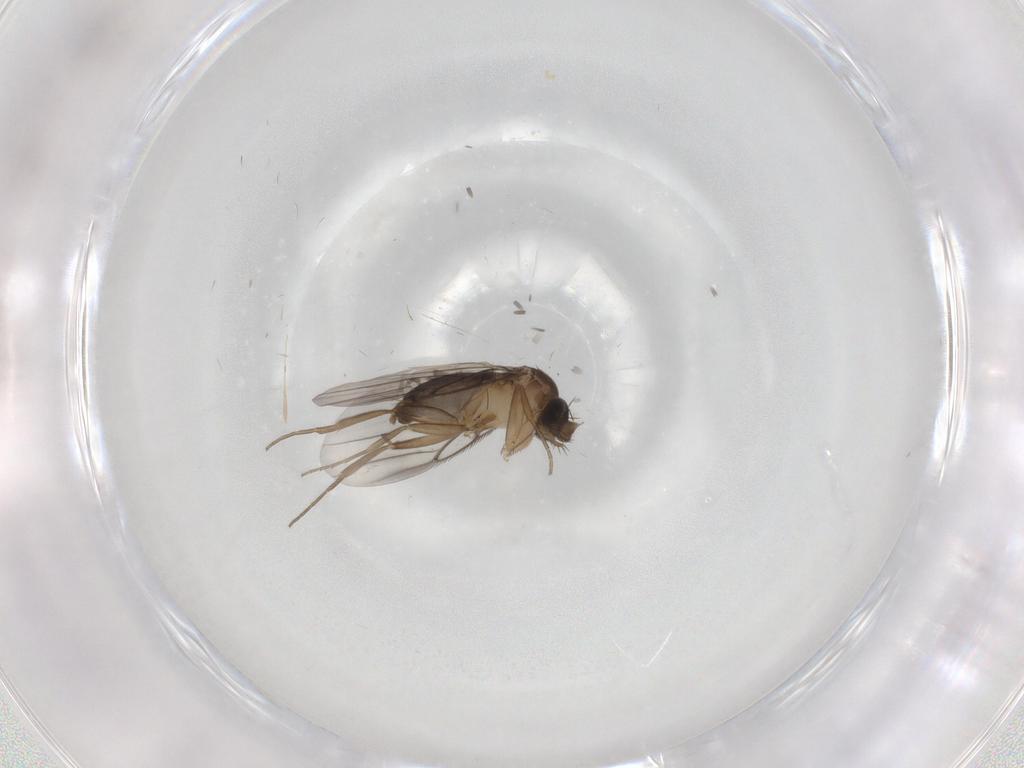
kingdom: Animalia
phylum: Arthropoda
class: Insecta
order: Diptera
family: Phoridae
